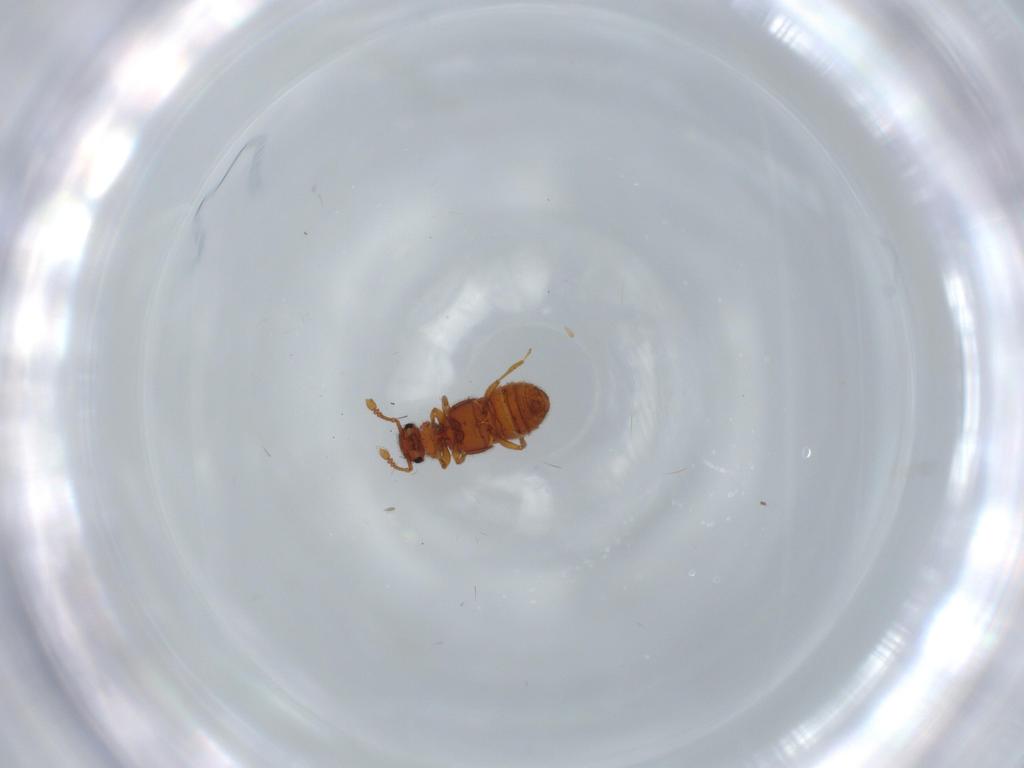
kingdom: Animalia
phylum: Arthropoda
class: Insecta
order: Coleoptera
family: Staphylinidae
